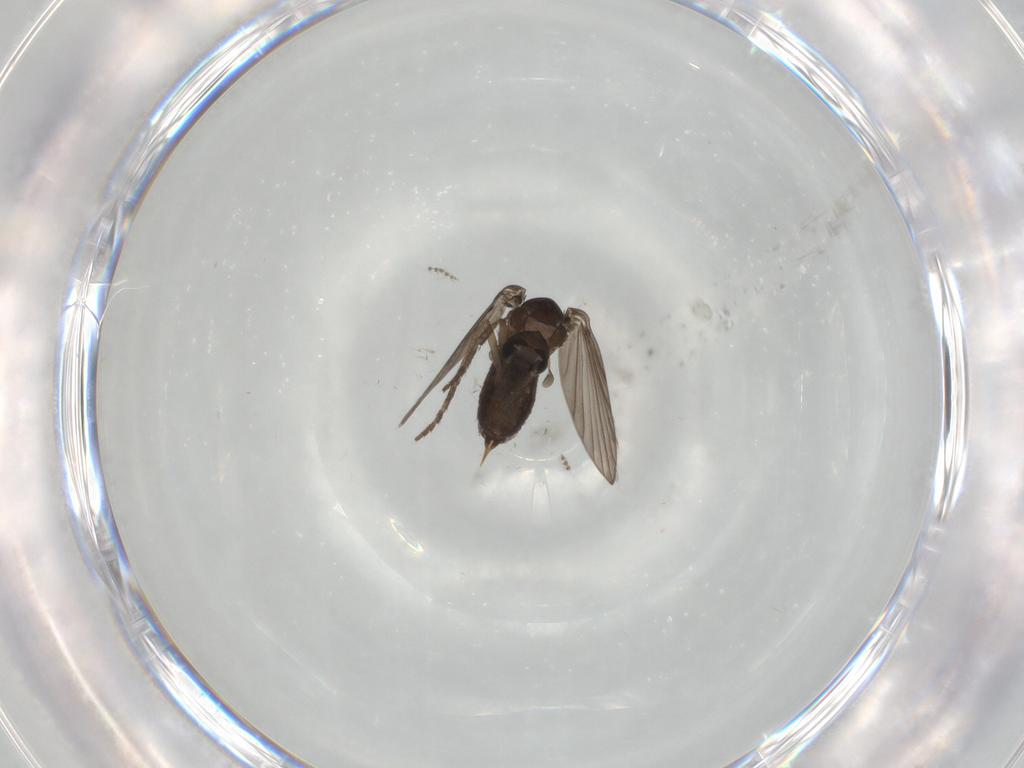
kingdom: Animalia
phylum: Arthropoda
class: Insecta
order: Diptera
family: Psychodidae
